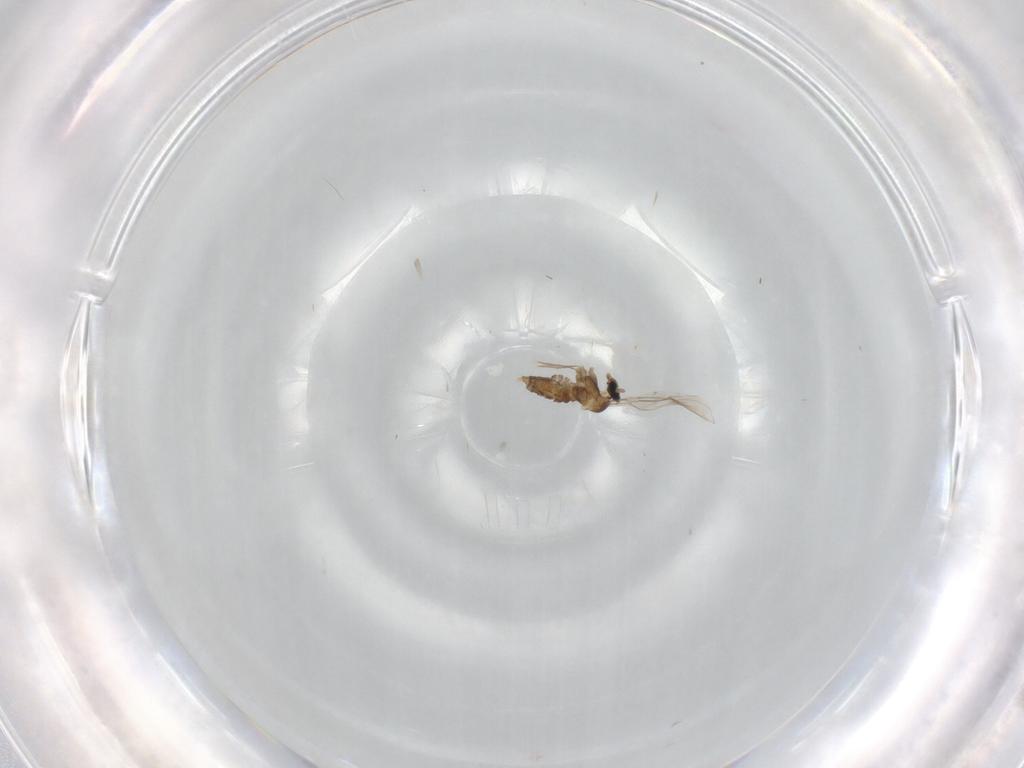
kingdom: Animalia
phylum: Arthropoda
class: Insecta
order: Diptera
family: Cecidomyiidae
